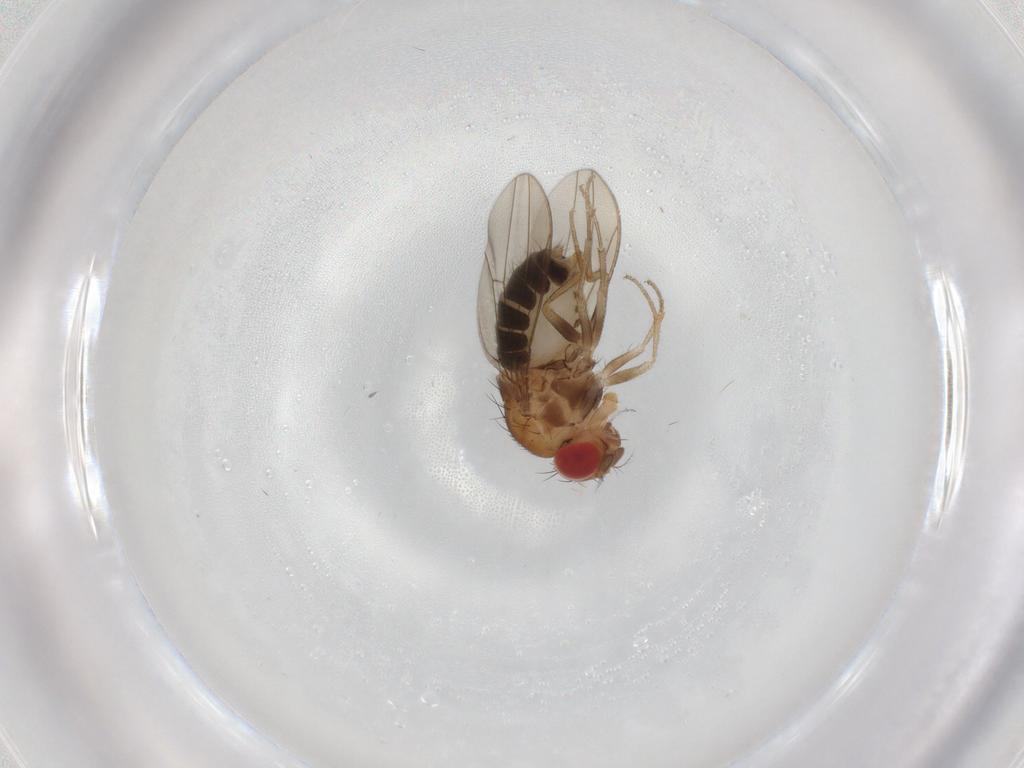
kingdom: Animalia
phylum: Arthropoda
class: Insecta
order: Diptera
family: Drosophilidae
